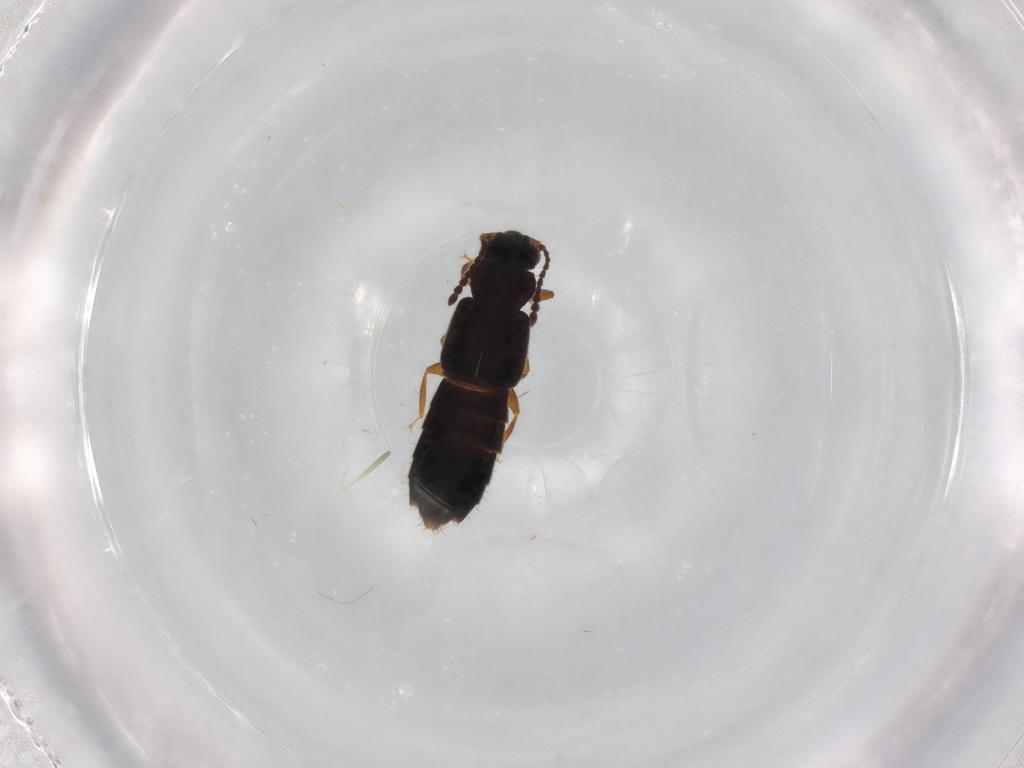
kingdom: Animalia
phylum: Arthropoda
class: Insecta
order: Coleoptera
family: Staphylinidae
